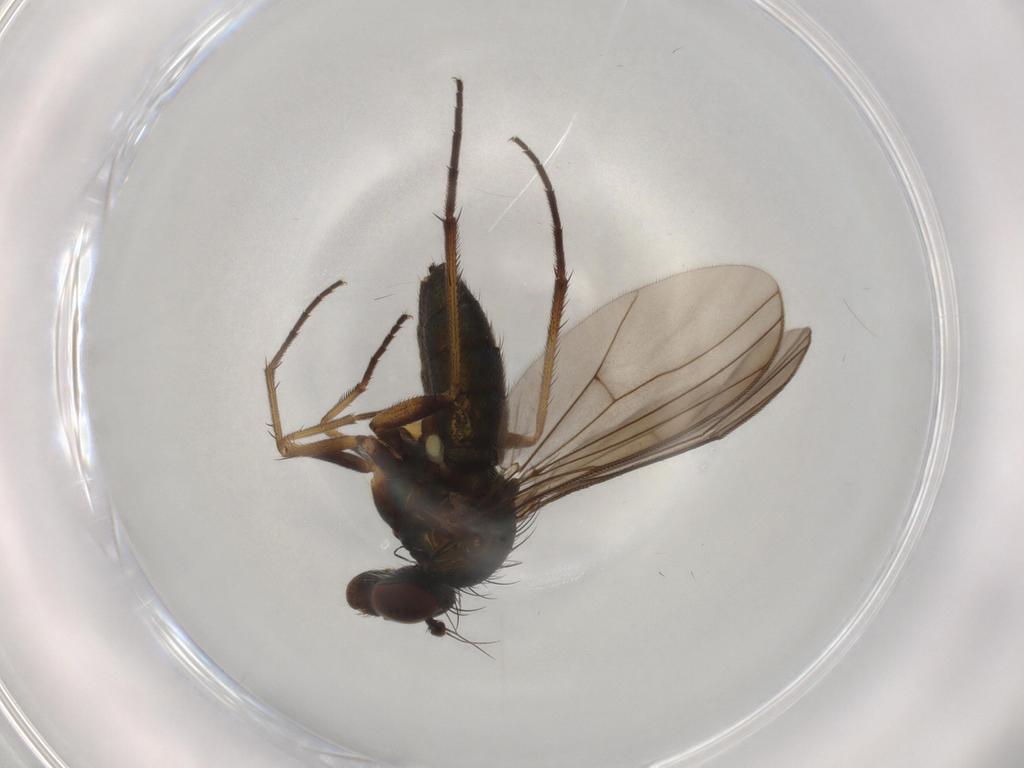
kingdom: Animalia
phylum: Arthropoda
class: Insecta
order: Diptera
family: Dolichopodidae
